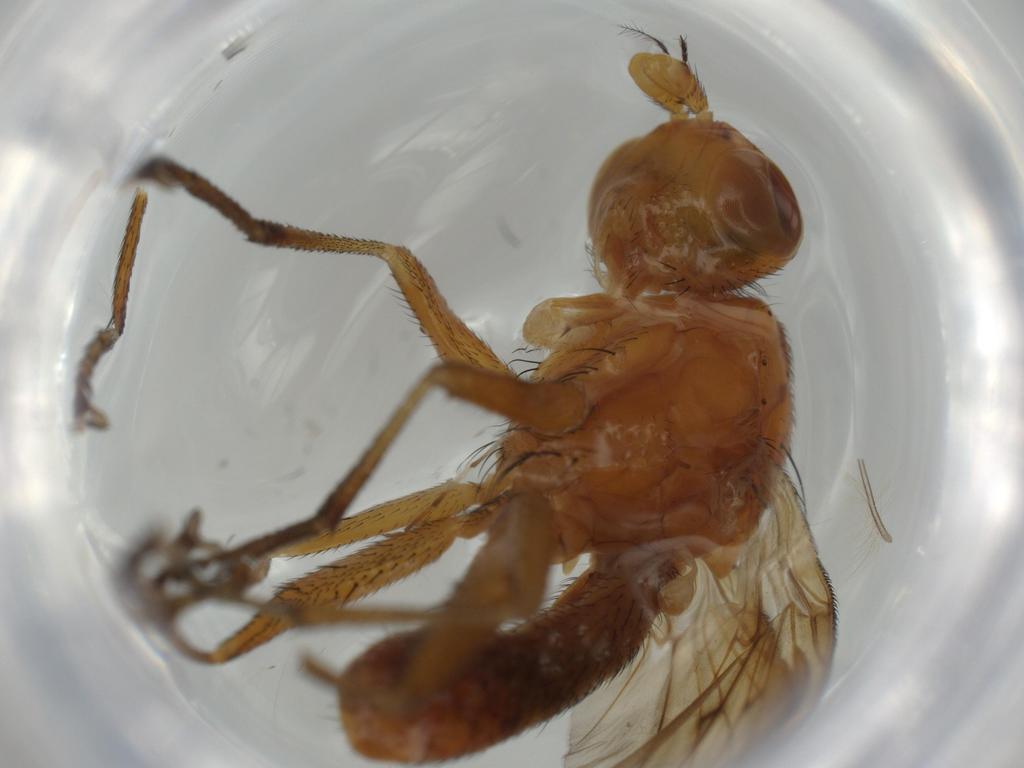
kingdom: Animalia
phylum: Arthropoda
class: Insecta
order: Diptera
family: Sciomyzidae
